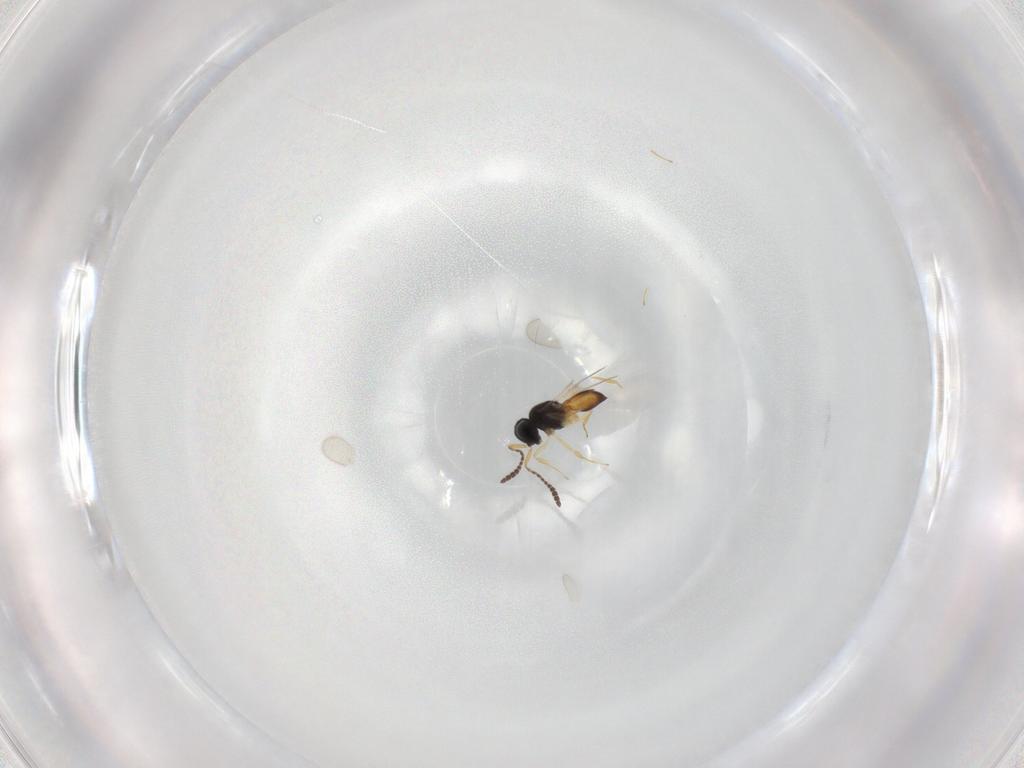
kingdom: Animalia
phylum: Arthropoda
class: Insecta
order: Hymenoptera
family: Scelionidae
